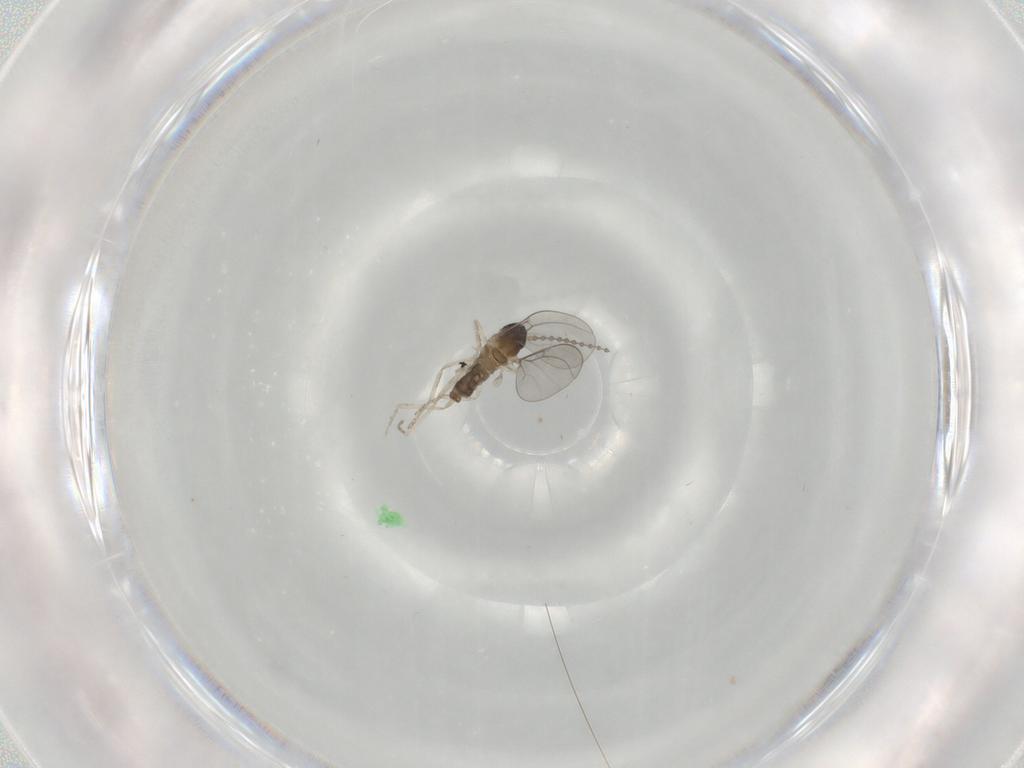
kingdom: Animalia
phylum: Arthropoda
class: Insecta
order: Diptera
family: Cecidomyiidae
